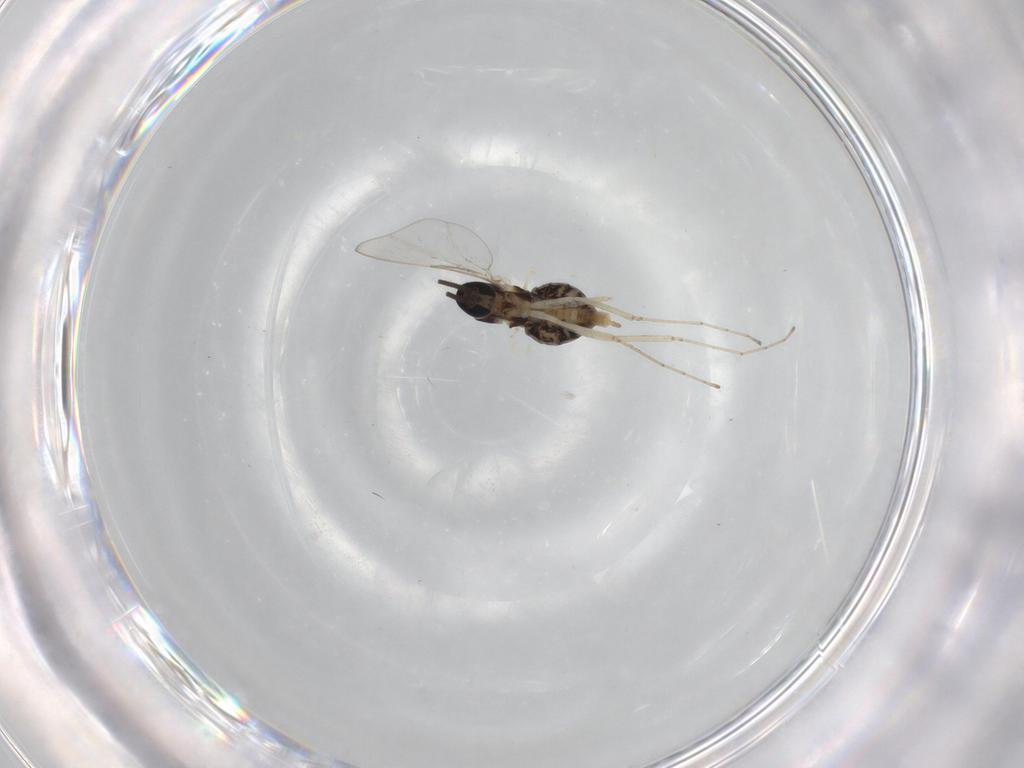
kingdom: Animalia
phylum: Arthropoda
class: Insecta
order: Diptera
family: Cecidomyiidae
